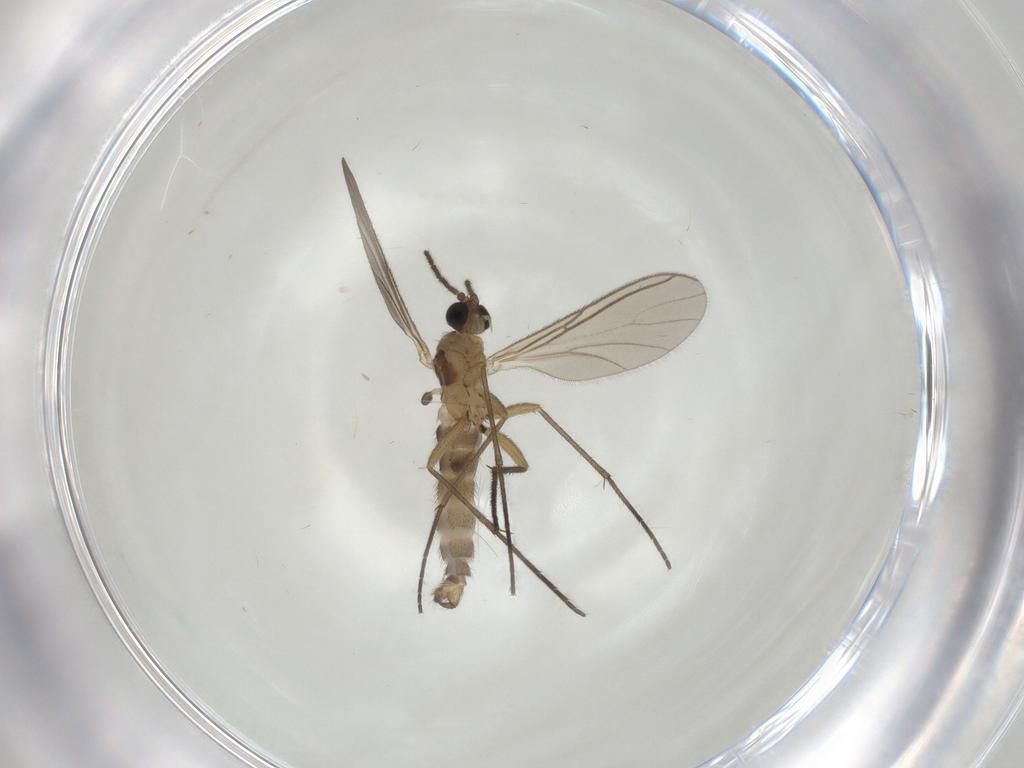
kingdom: Animalia
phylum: Arthropoda
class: Insecta
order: Diptera
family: Sciaridae
